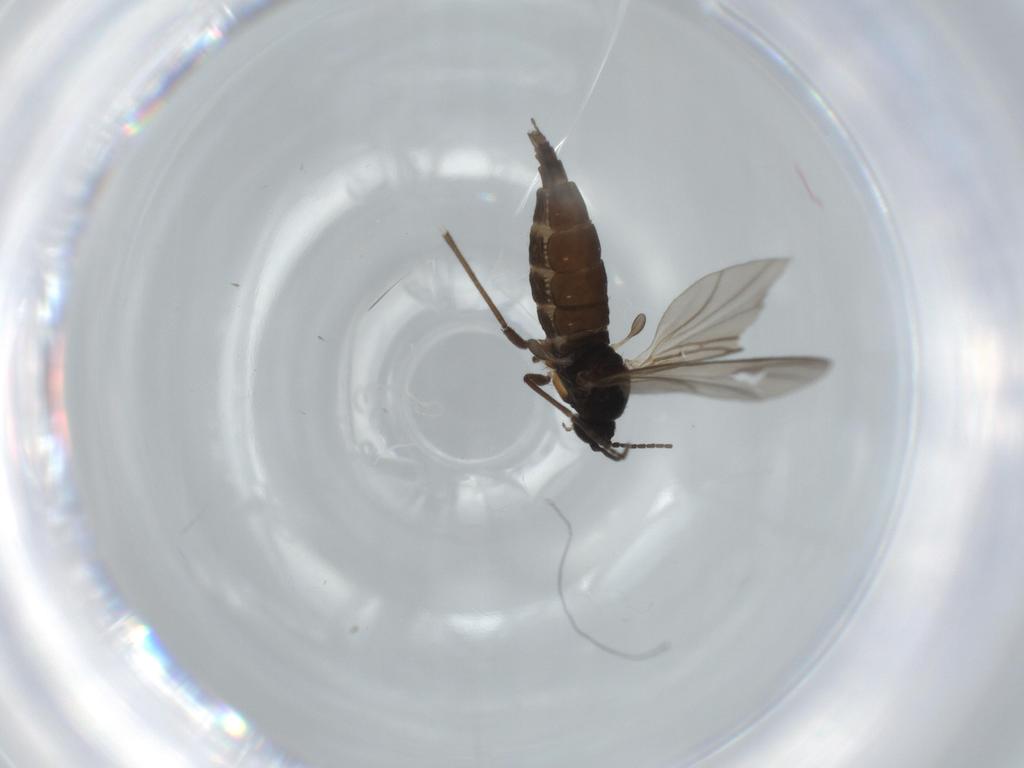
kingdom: Animalia
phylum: Arthropoda
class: Insecta
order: Diptera
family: Sciaridae
